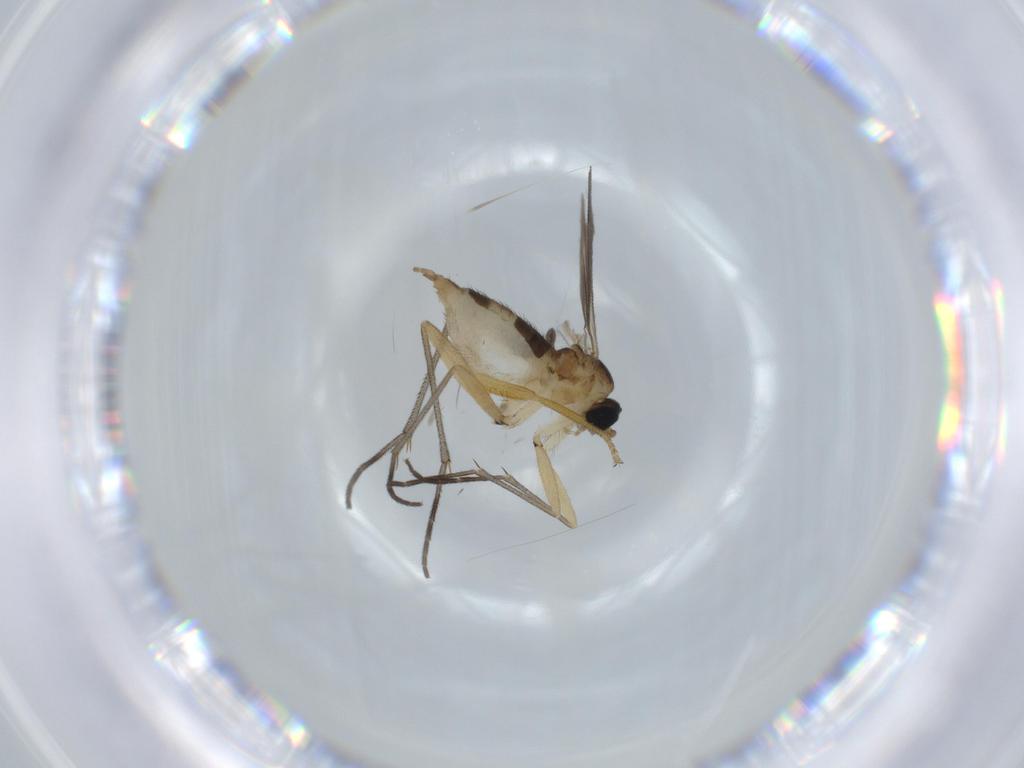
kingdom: Animalia
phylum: Arthropoda
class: Insecta
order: Diptera
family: Sciaridae
